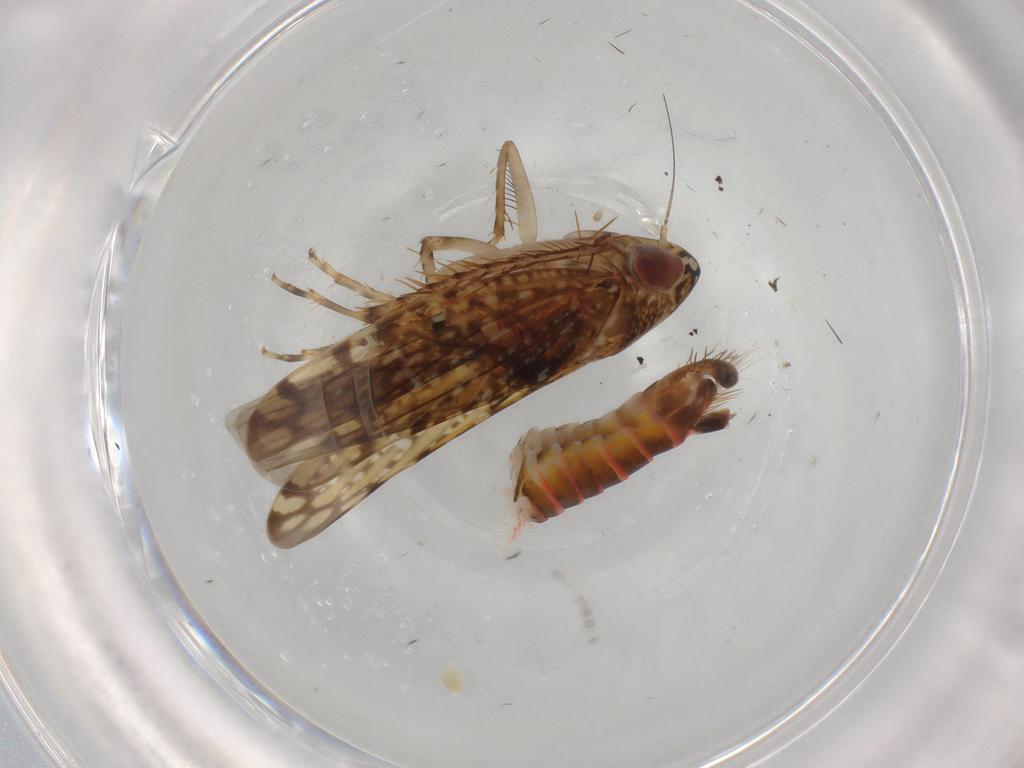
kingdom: Animalia
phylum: Arthropoda
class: Insecta
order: Hemiptera
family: Cicadellidae
